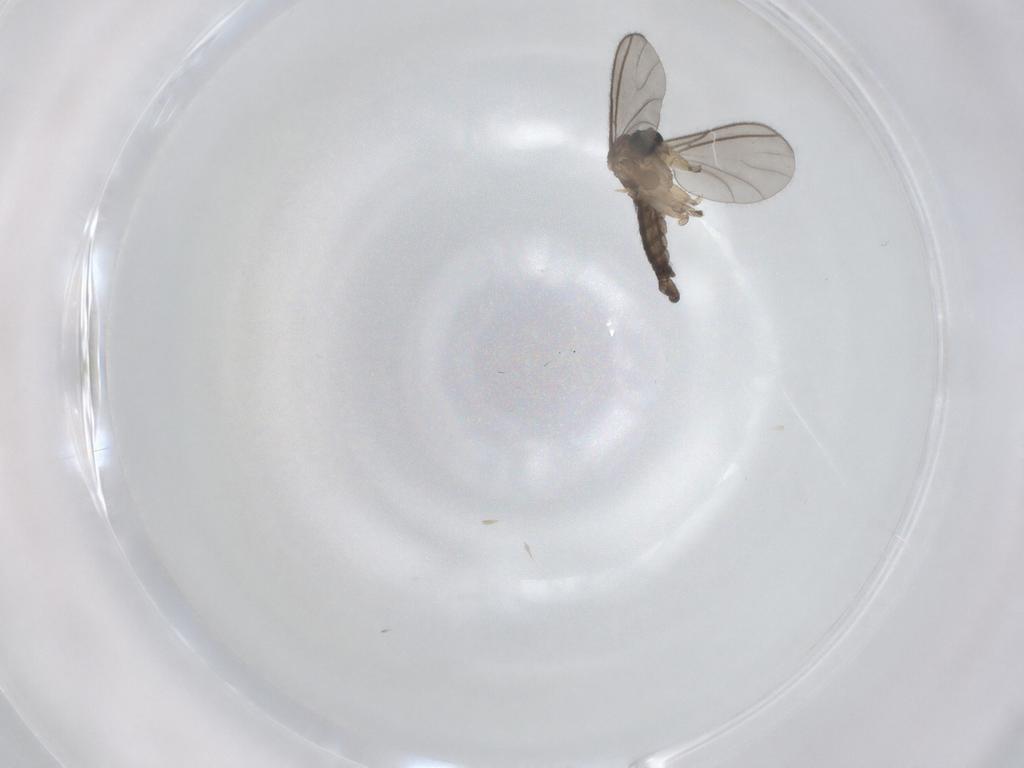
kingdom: Animalia
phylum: Arthropoda
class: Insecta
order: Diptera
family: Sciaridae
